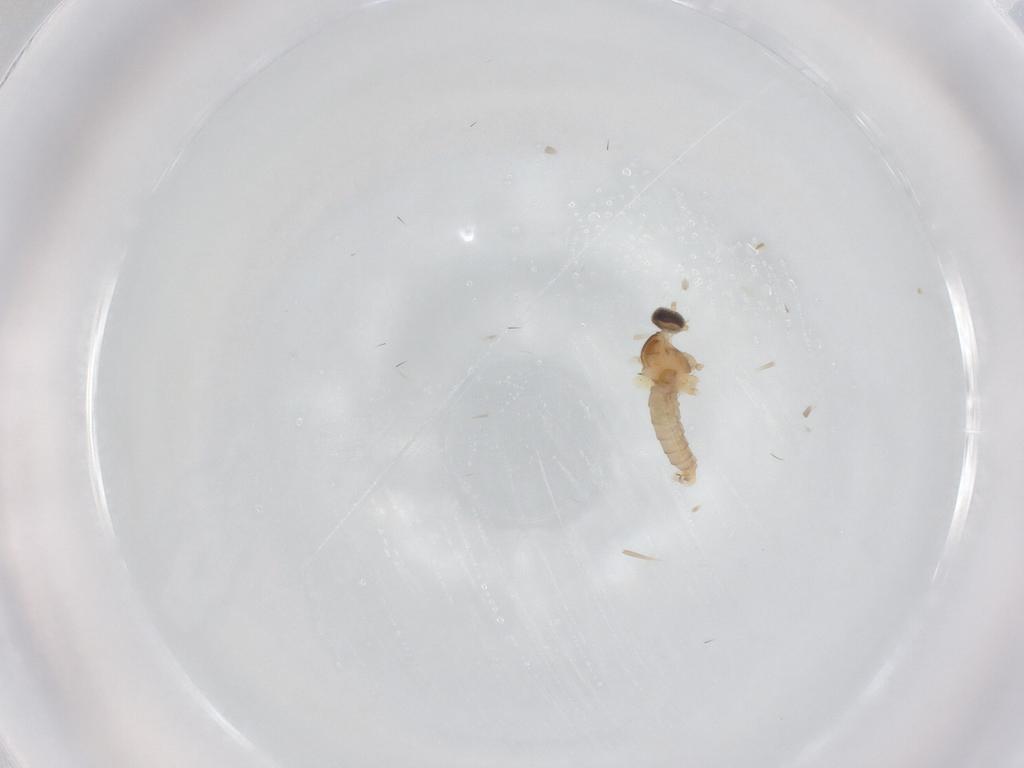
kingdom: Animalia
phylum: Arthropoda
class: Insecta
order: Diptera
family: Cecidomyiidae
